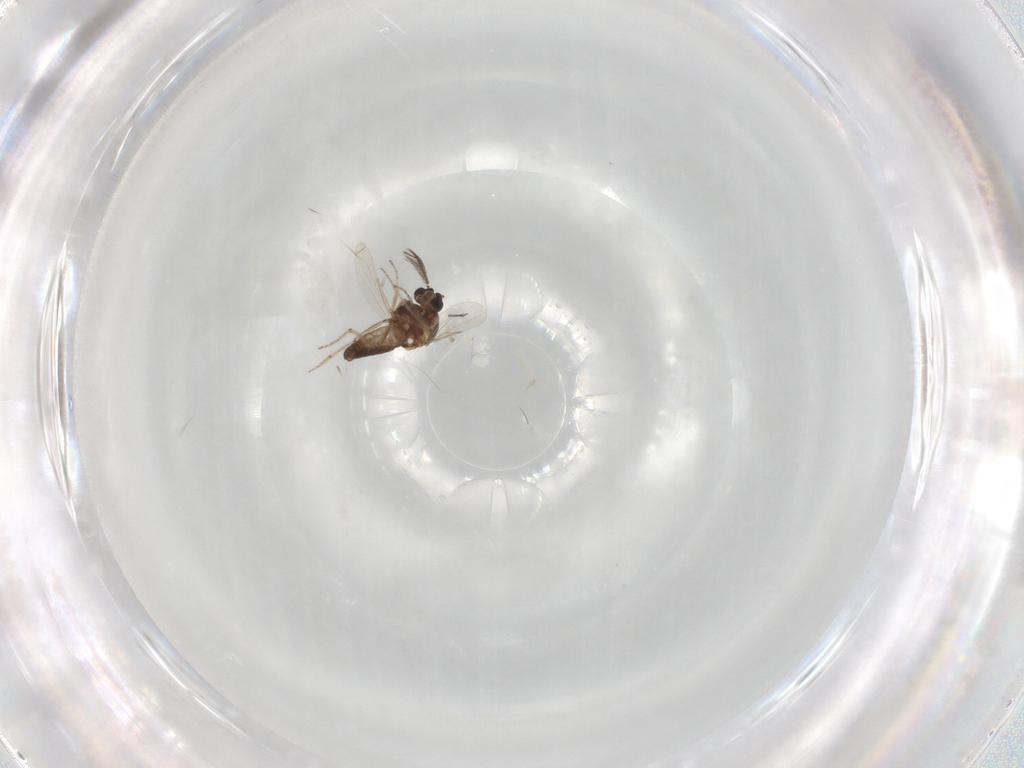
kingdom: Animalia
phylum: Arthropoda
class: Insecta
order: Diptera
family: Ceratopogonidae
